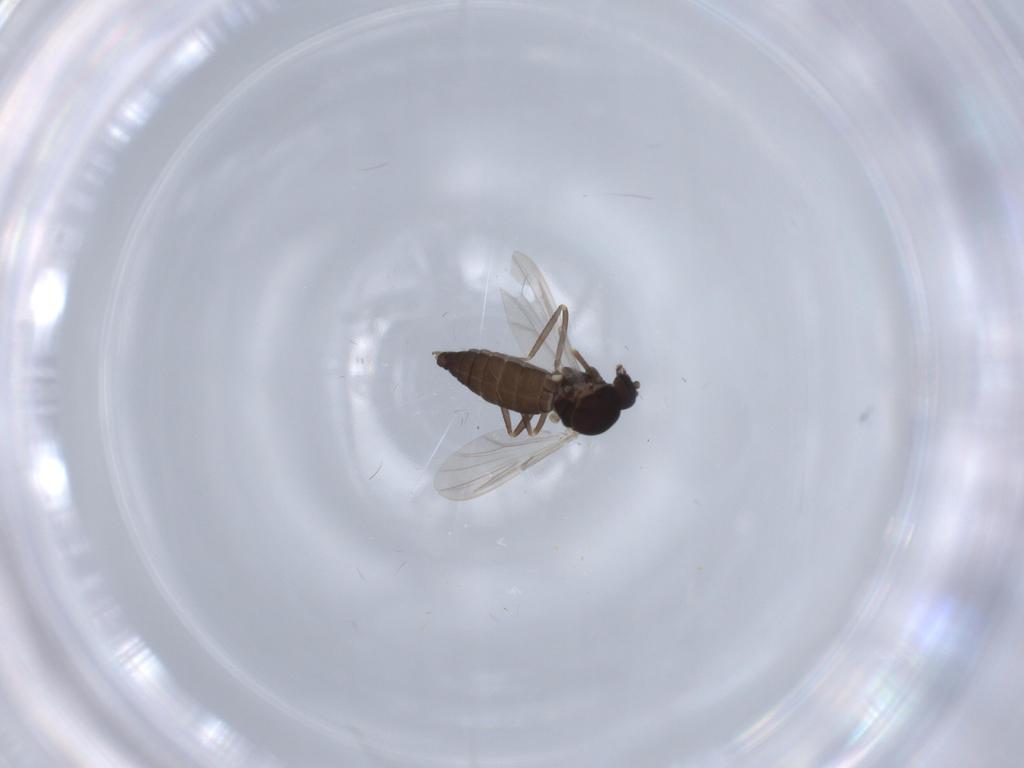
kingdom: Animalia
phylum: Arthropoda
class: Insecta
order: Diptera
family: Ceratopogonidae
